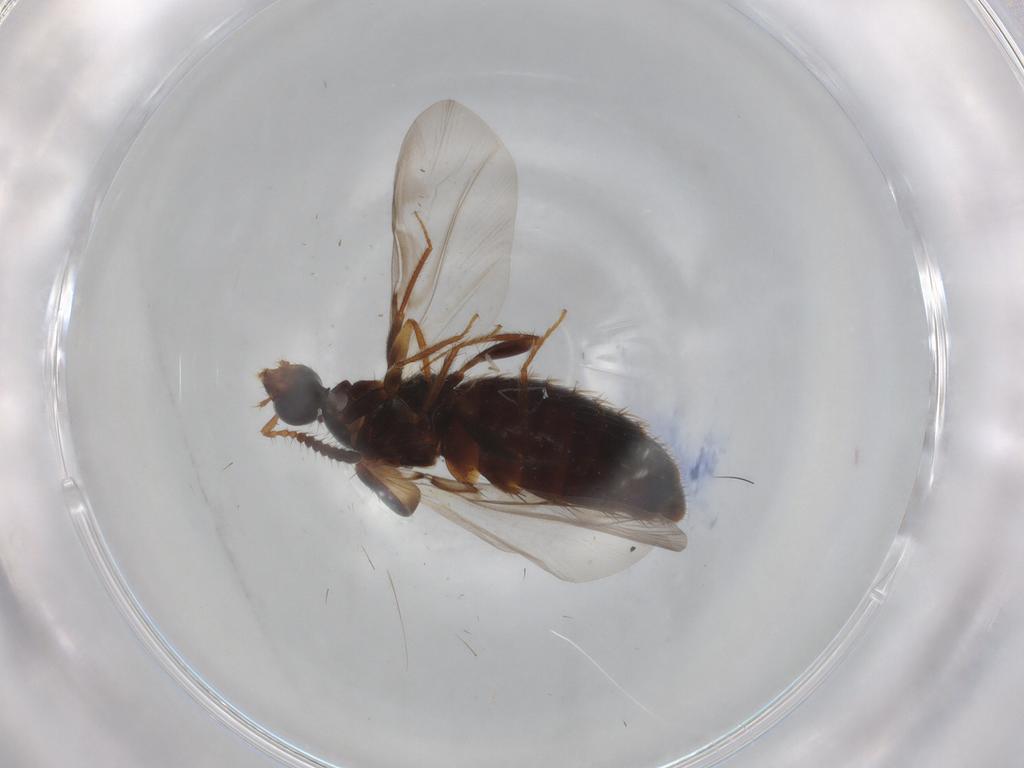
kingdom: Animalia
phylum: Arthropoda
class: Insecta
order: Coleoptera
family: Staphylinidae
